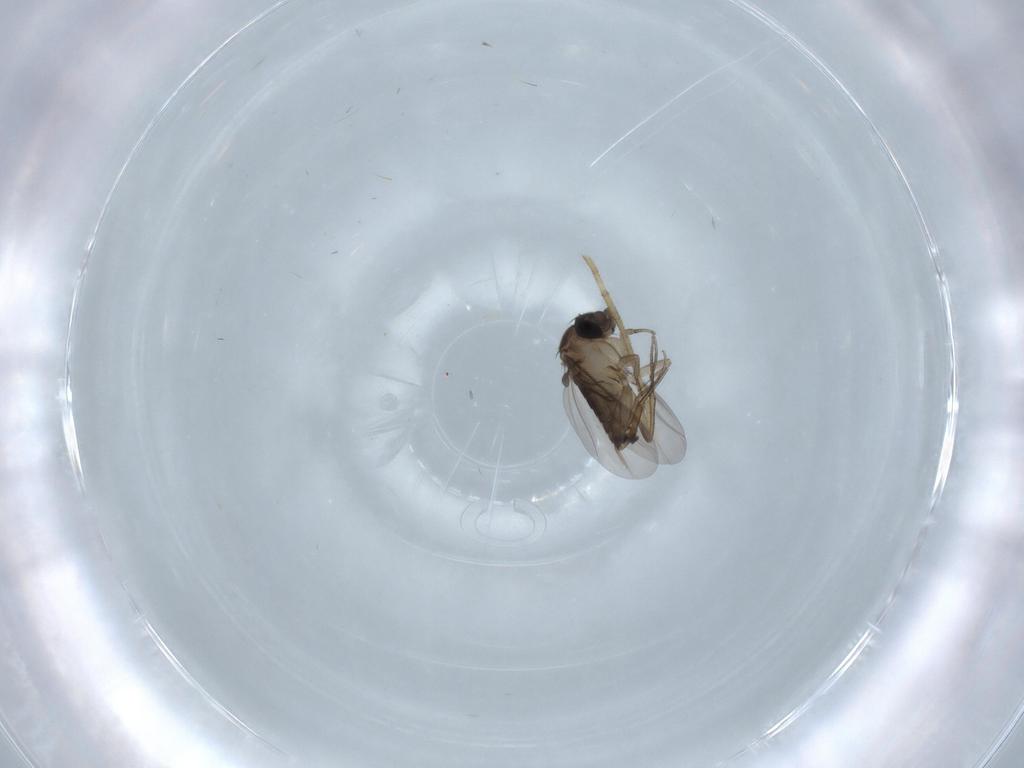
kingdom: Animalia
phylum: Arthropoda
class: Insecta
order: Diptera
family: Phoridae
